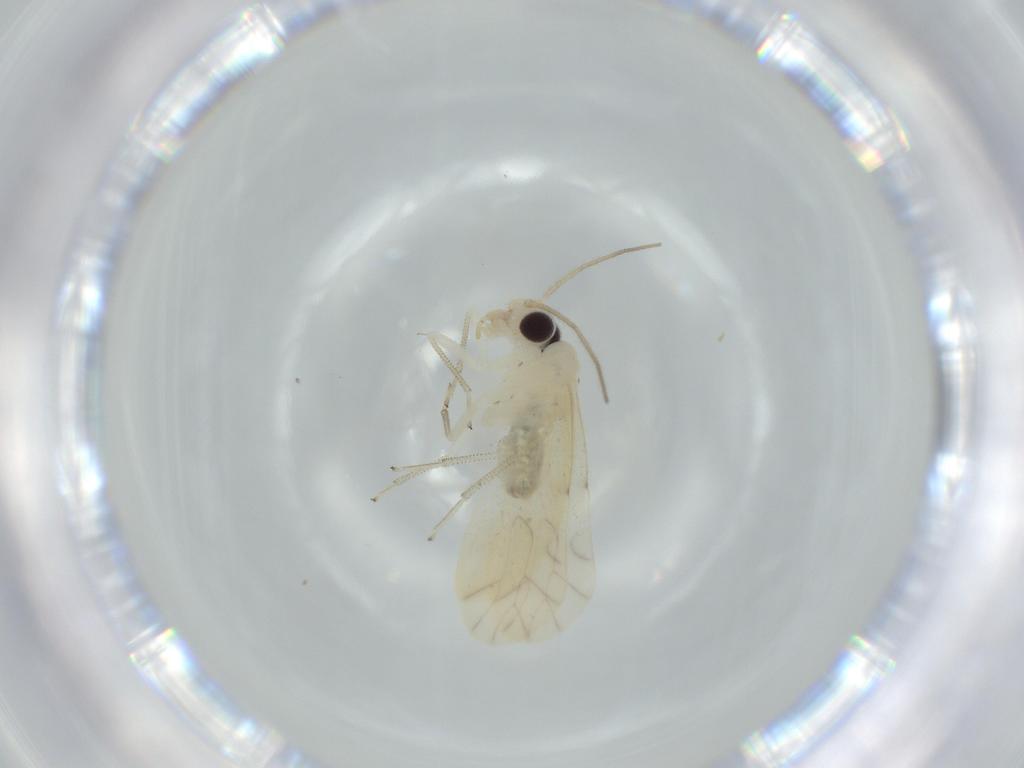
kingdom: Animalia
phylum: Arthropoda
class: Insecta
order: Psocodea
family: Caeciliusidae
